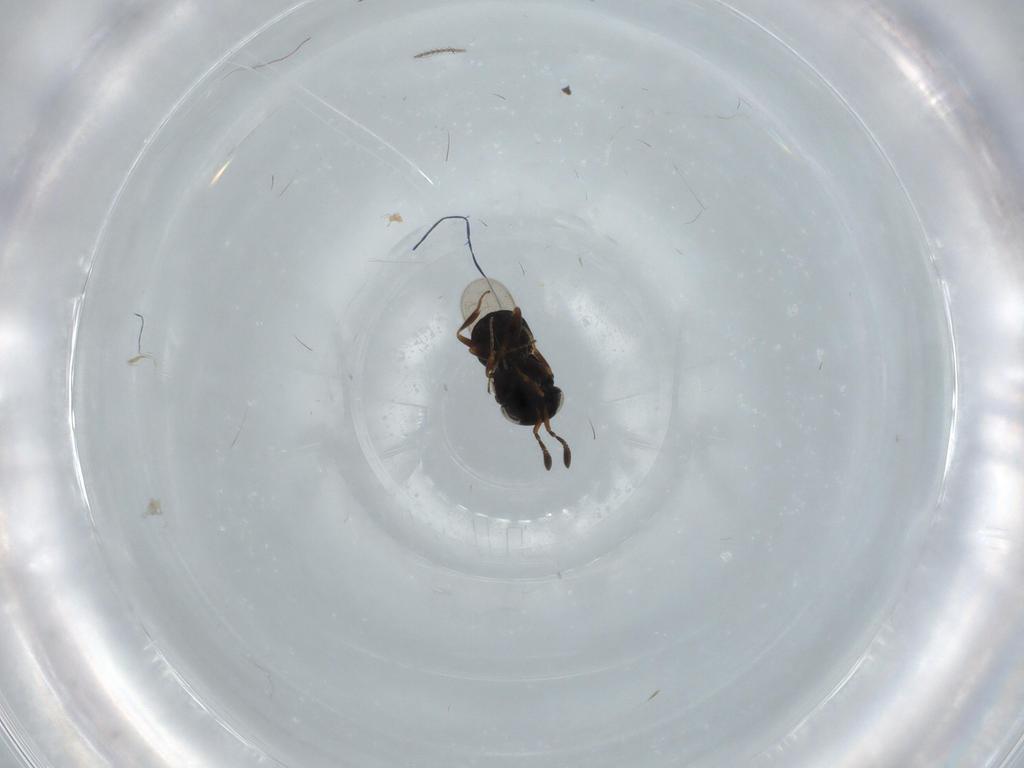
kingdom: Animalia
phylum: Arthropoda
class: Insecta
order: Hymenoptera
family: Scelionidae
